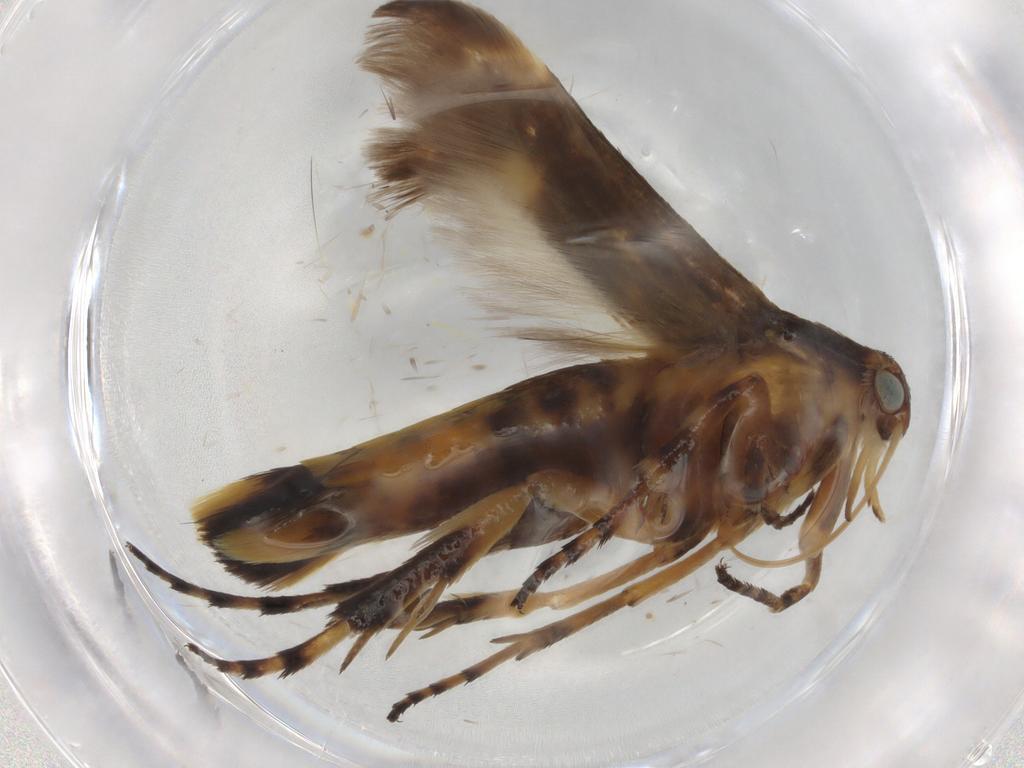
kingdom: Animalia
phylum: Arthropoda
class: Insecta
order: Lepidoptera
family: Scythrididae
